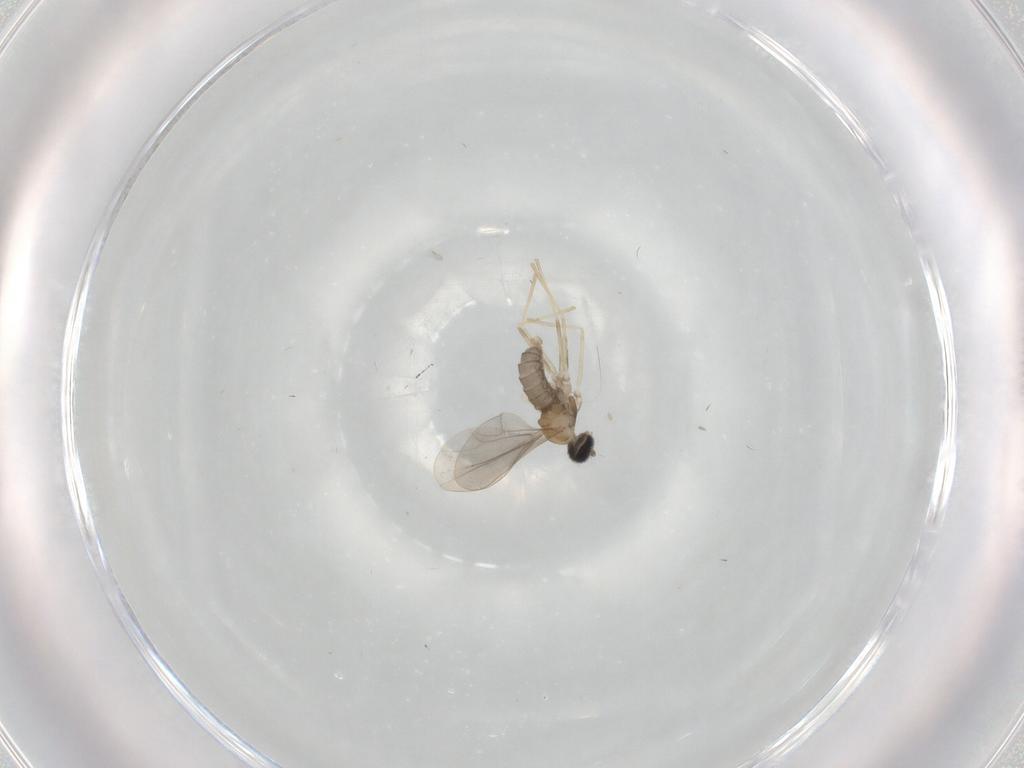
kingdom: Animalia
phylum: Arthropoda
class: Insecta
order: Diptera
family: Cecidomyiidae
